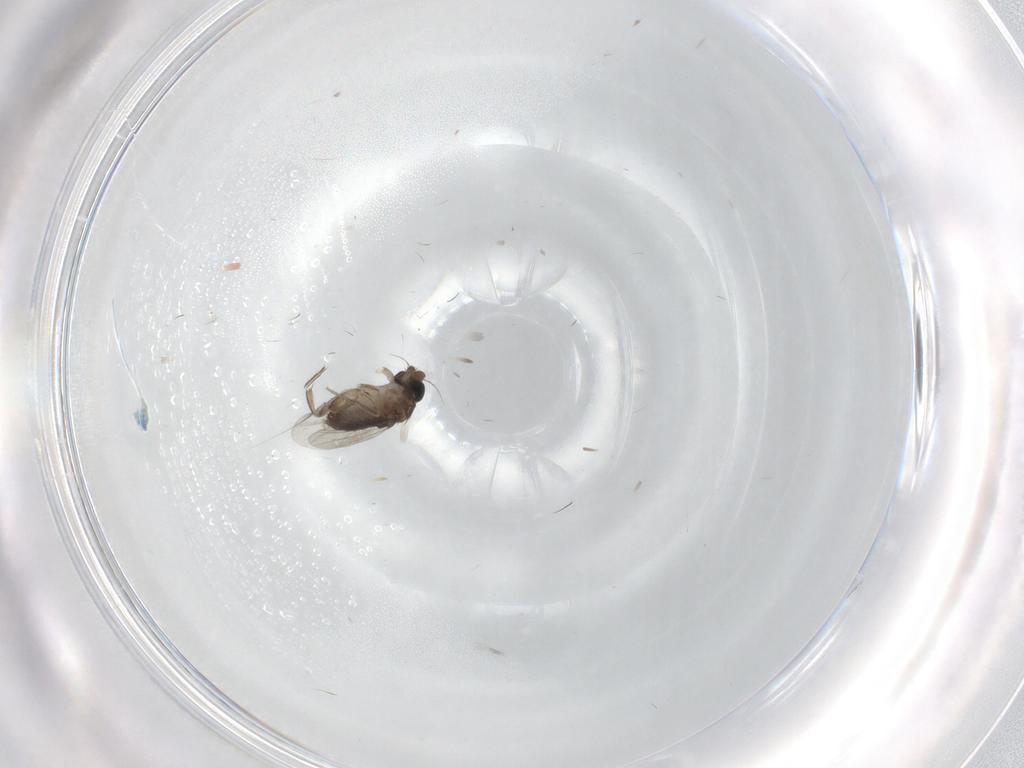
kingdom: Animalia
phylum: Arthropoda
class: Insecta
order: Diptera
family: Phoridae
